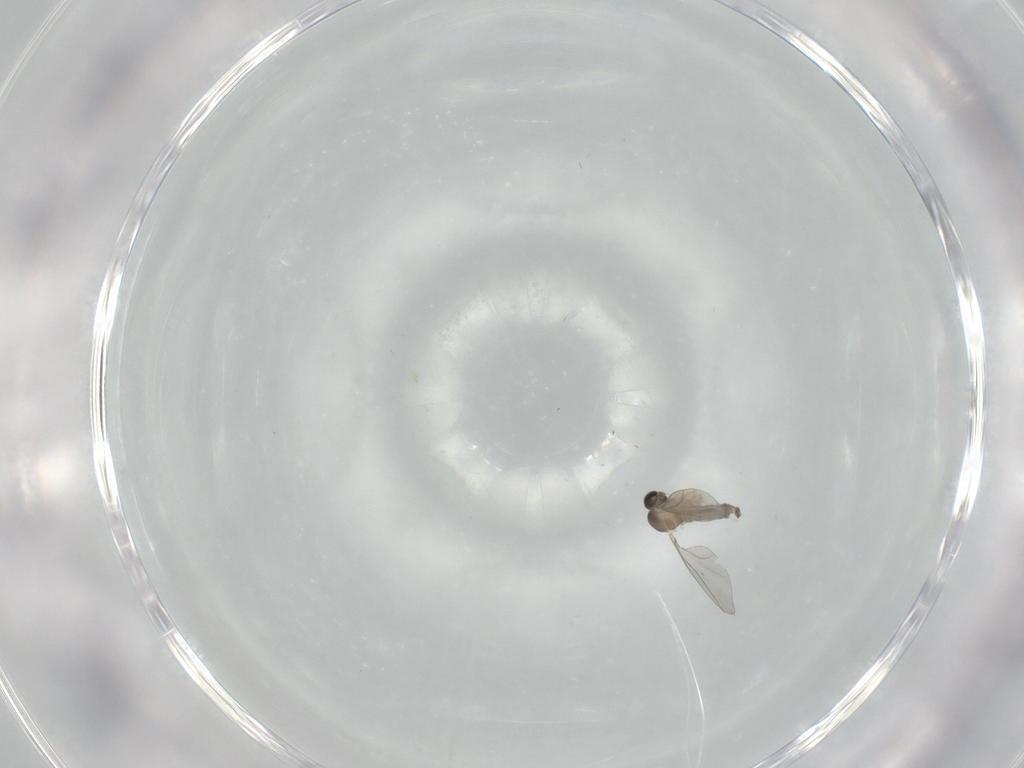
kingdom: Animalia
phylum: Arthropoda
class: Insecta
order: Diptera
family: Cecidomyiidae
